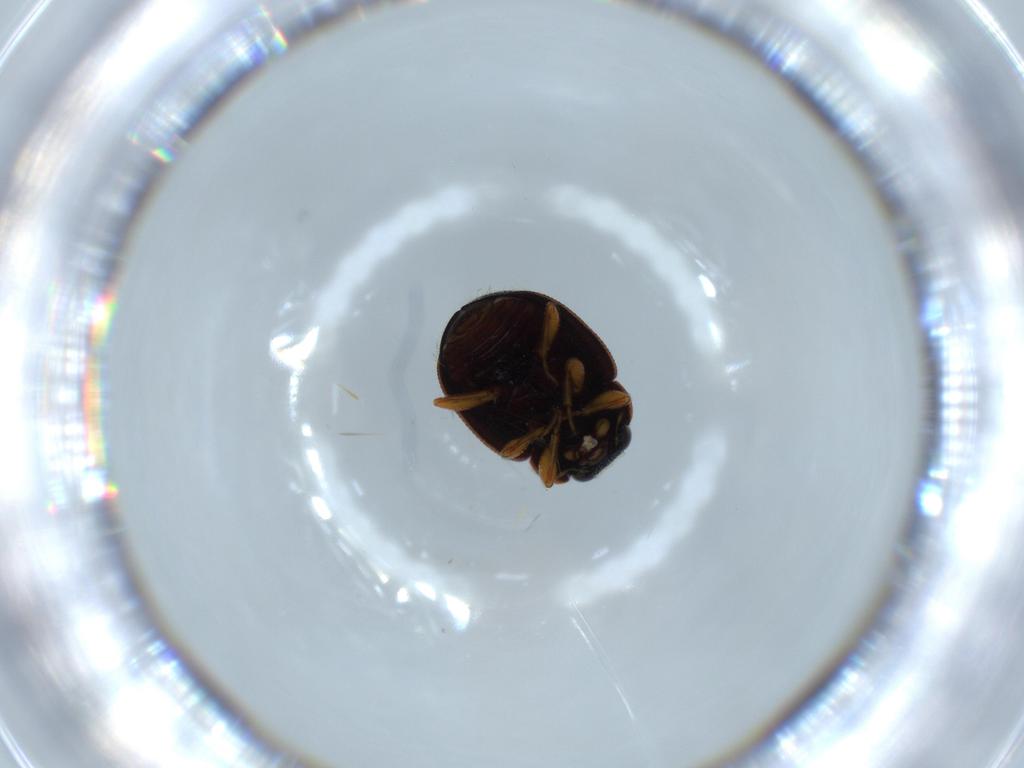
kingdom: Animalia
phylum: Arthropoda
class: Insecta
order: Coleoptera
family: Coccinellidae
